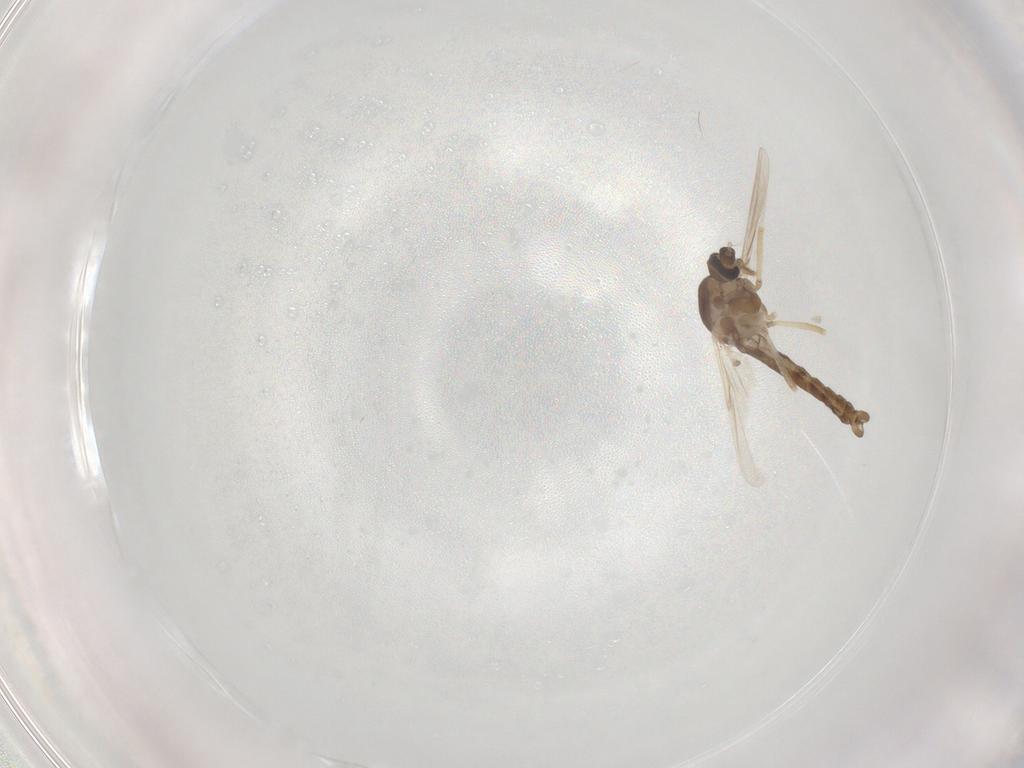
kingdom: Animalia
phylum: Arthropoda
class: Insecta
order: Diptera
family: Ceratopogonidae
